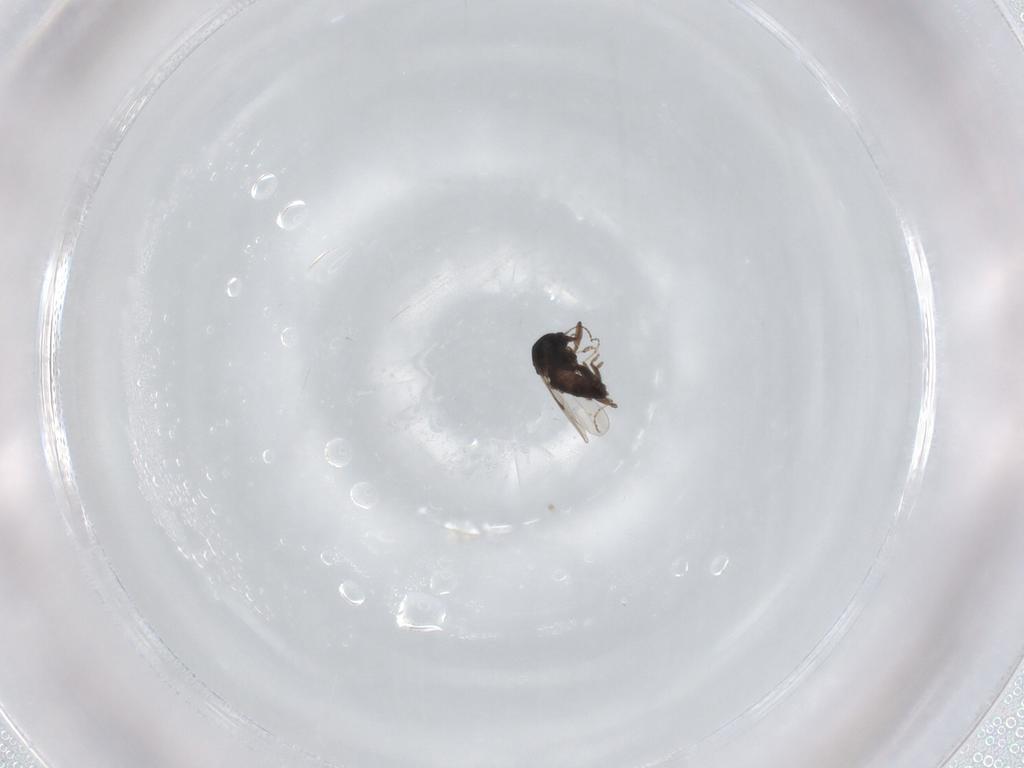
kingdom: Animalia
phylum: Arthropoda
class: Insecta
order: Diptera
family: Ceratopogonidae
